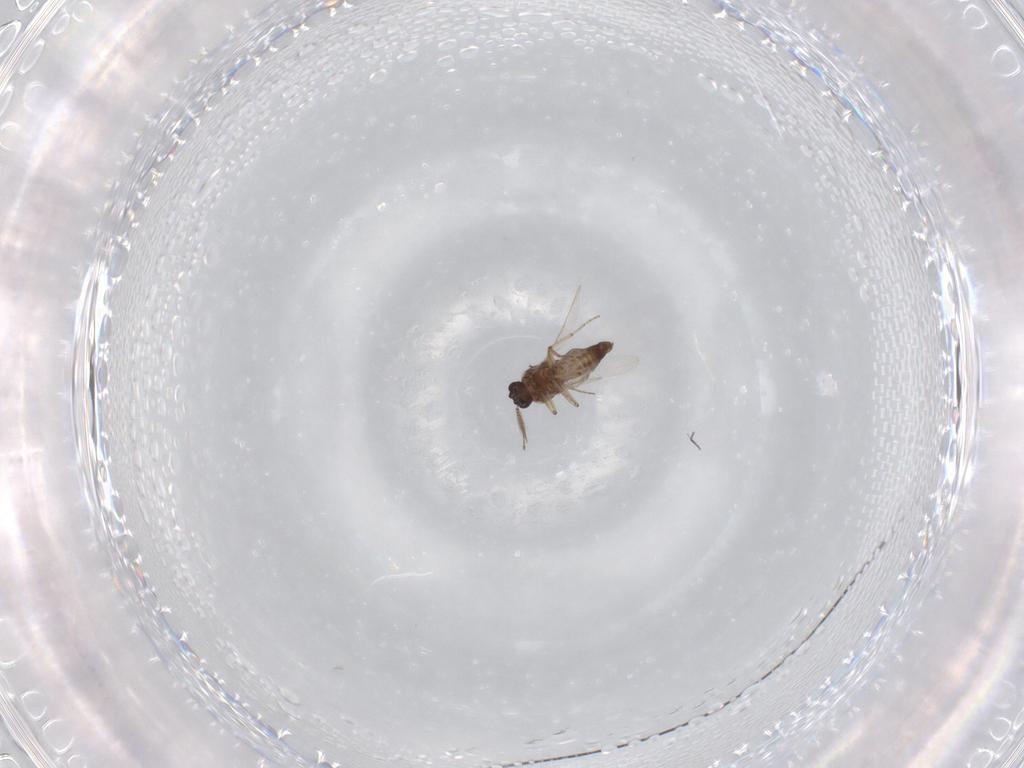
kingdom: Animalia
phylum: Arthropoda
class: Insecta
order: Diptera
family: Ceratopogonidae
